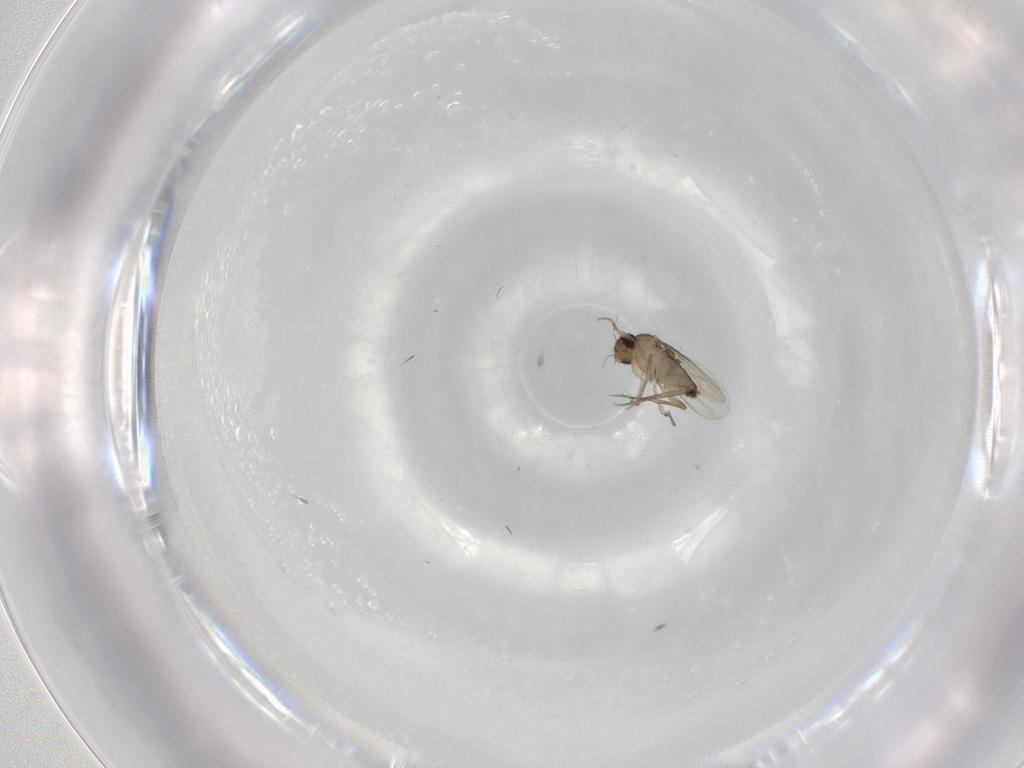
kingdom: Animalia
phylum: Arthropoda
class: Insecta
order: Diptera
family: Phoridae
